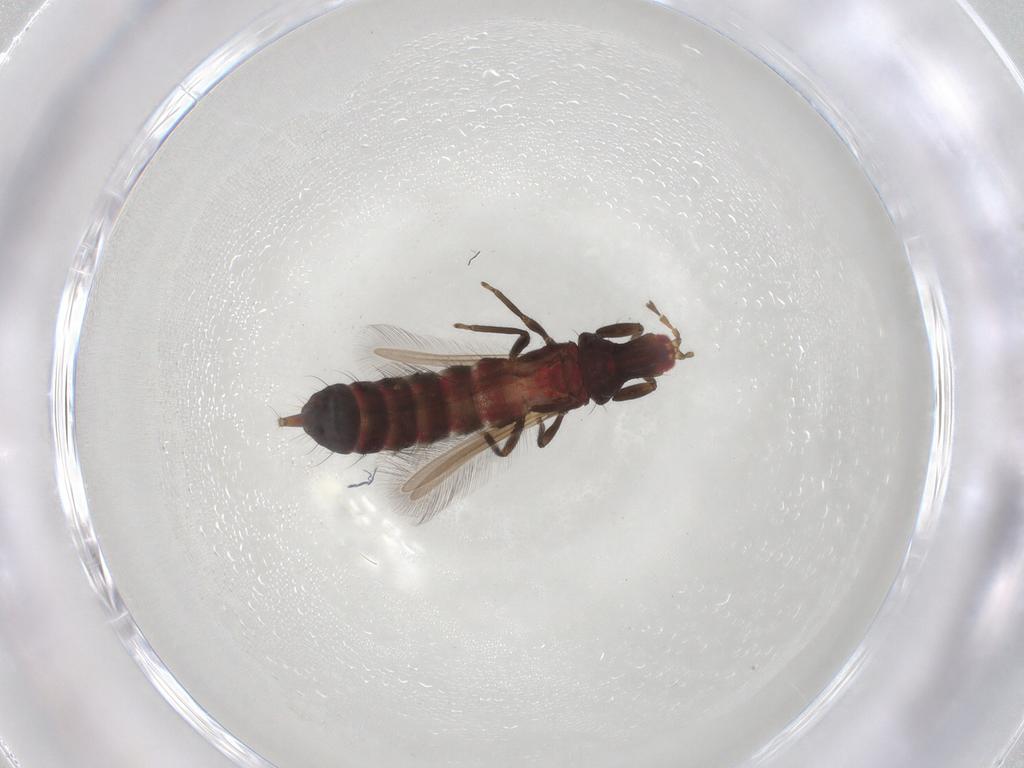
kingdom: Animalia
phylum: Arthropoda
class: Insecta
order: Thysanoptera
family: Phlaeothripidae
